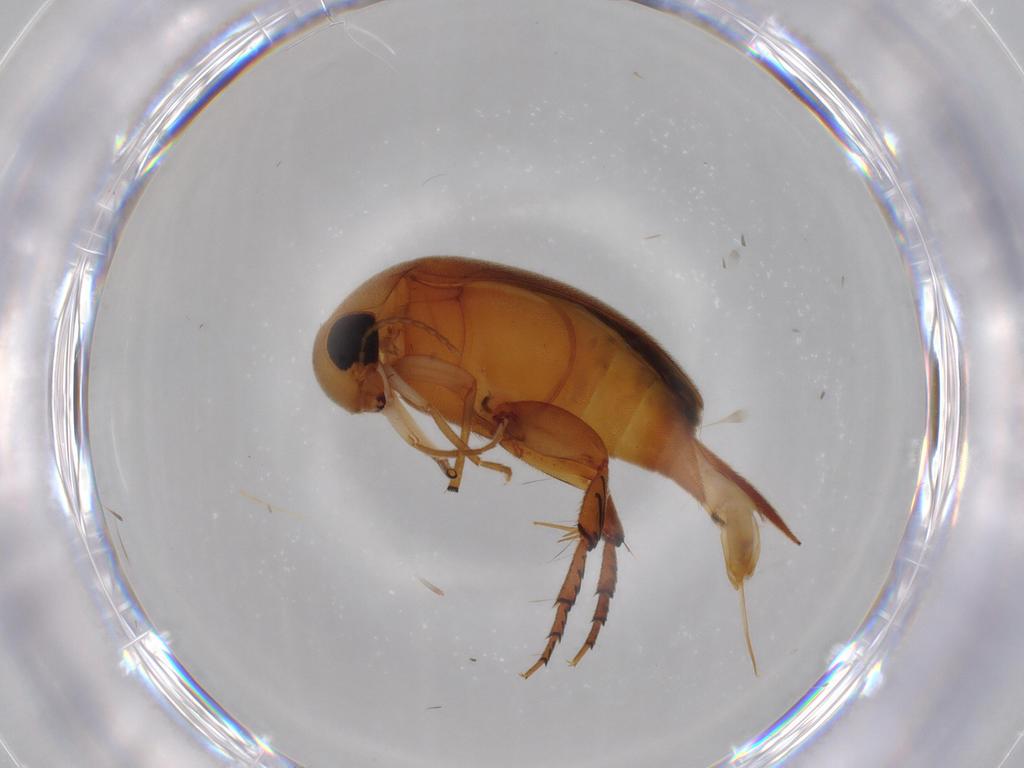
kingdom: Animalia
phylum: Arthropoda
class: Insecta
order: Coleoptera
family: Mordellidae
